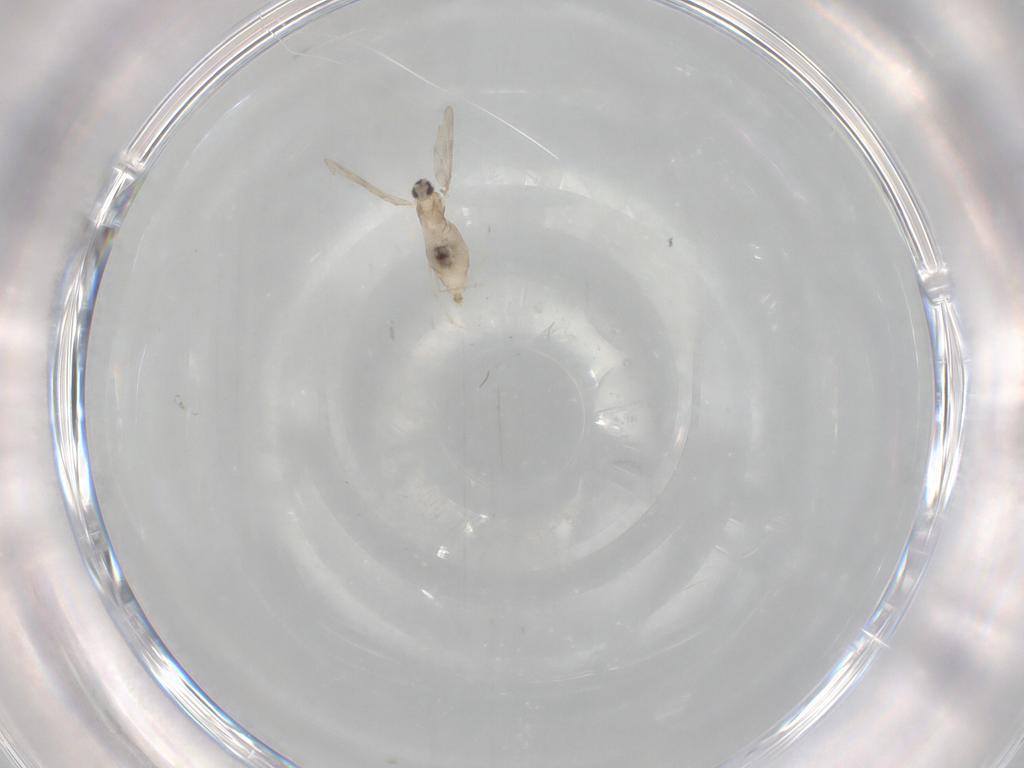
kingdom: Animalia
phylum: Arthropoda
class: Insecta
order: Diptera
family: Cecidomyiidae
